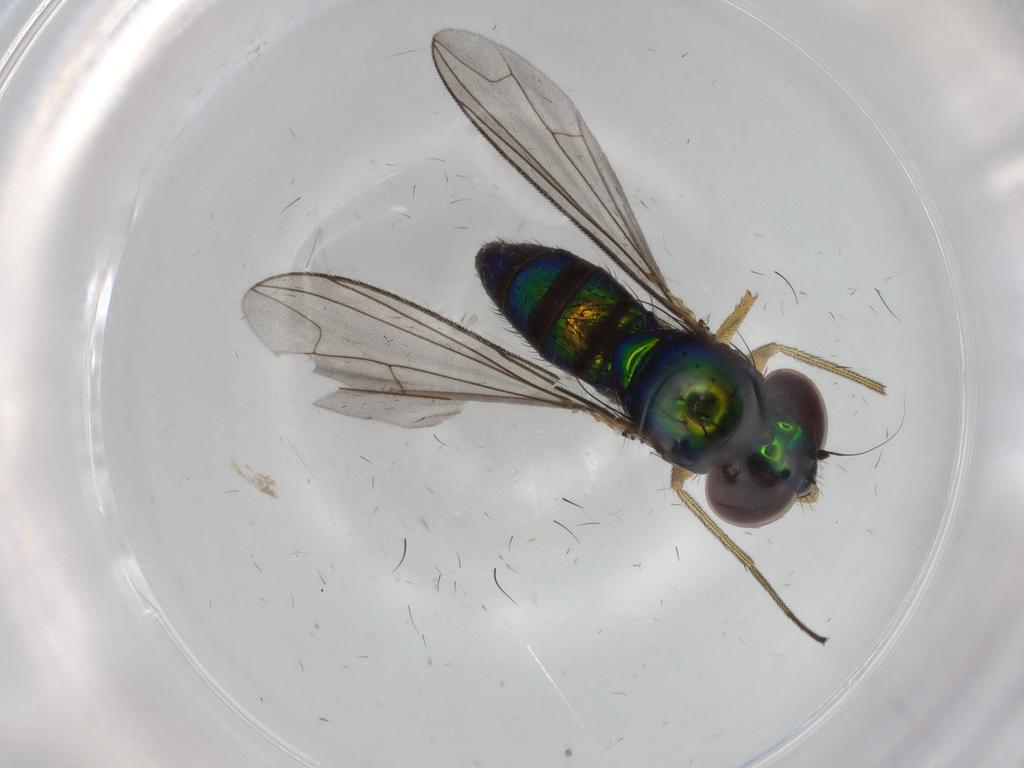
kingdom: Animalia
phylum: Arthropoda
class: Insecta
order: Diptera
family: Dolichopodidae
